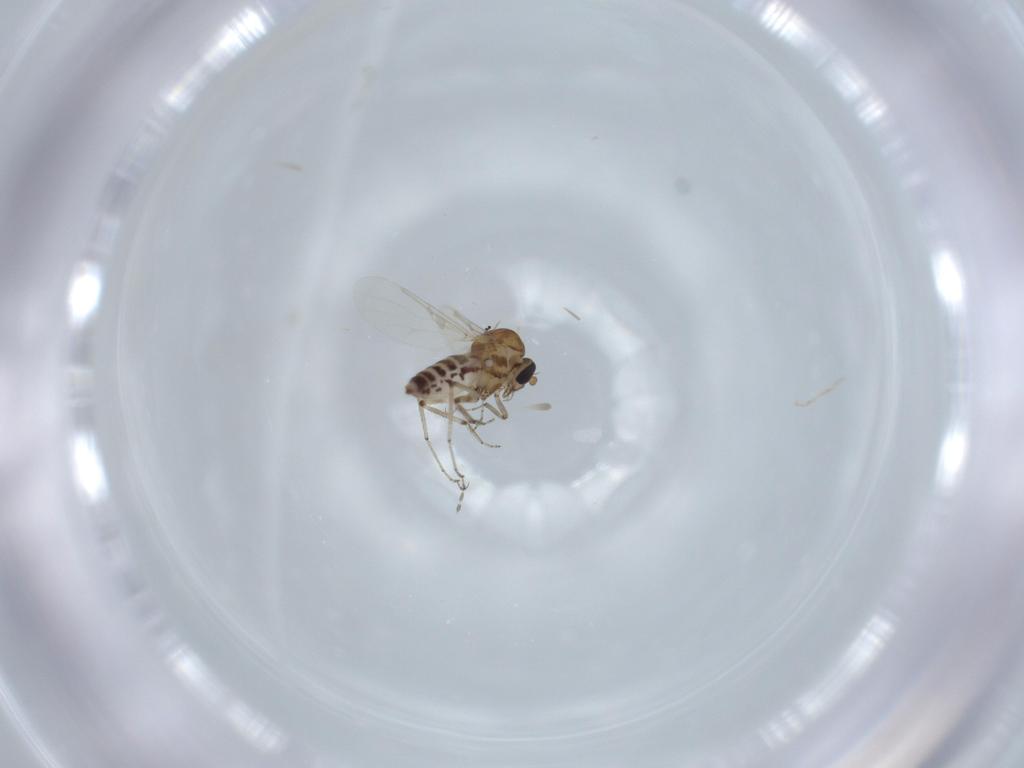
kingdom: Animalia
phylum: Arthropoda
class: Insecta
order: Diptera
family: Ceratopogonidae
